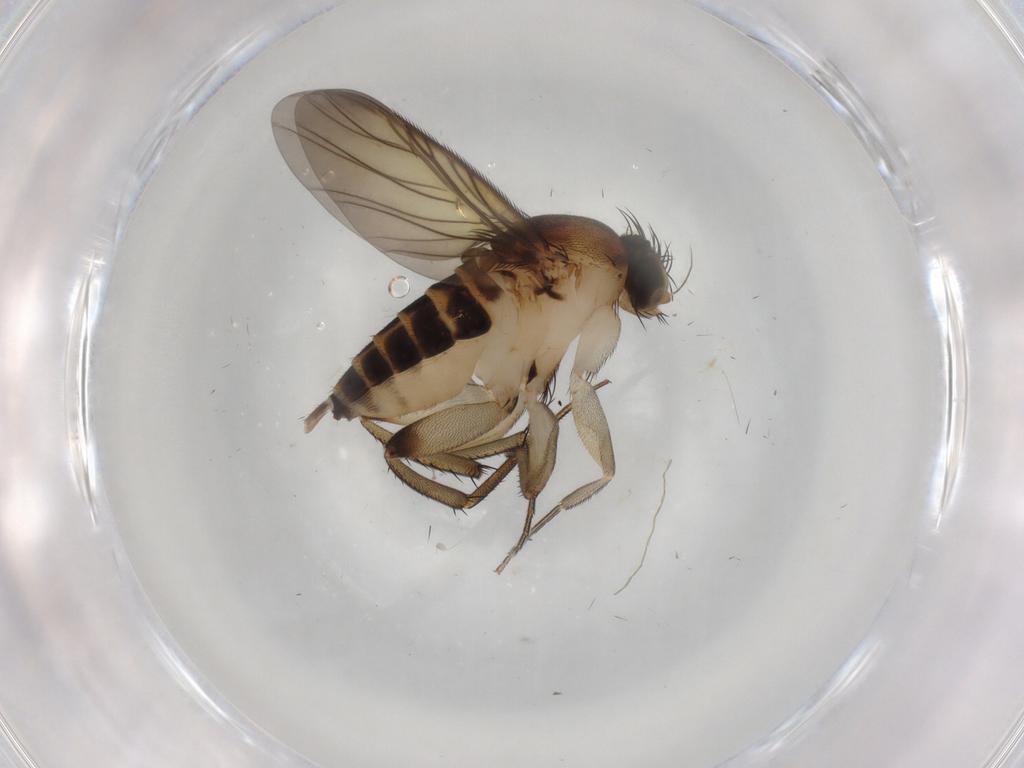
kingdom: Animalia
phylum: Arthropoda
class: Insecta
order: Diptera
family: Phoridae
